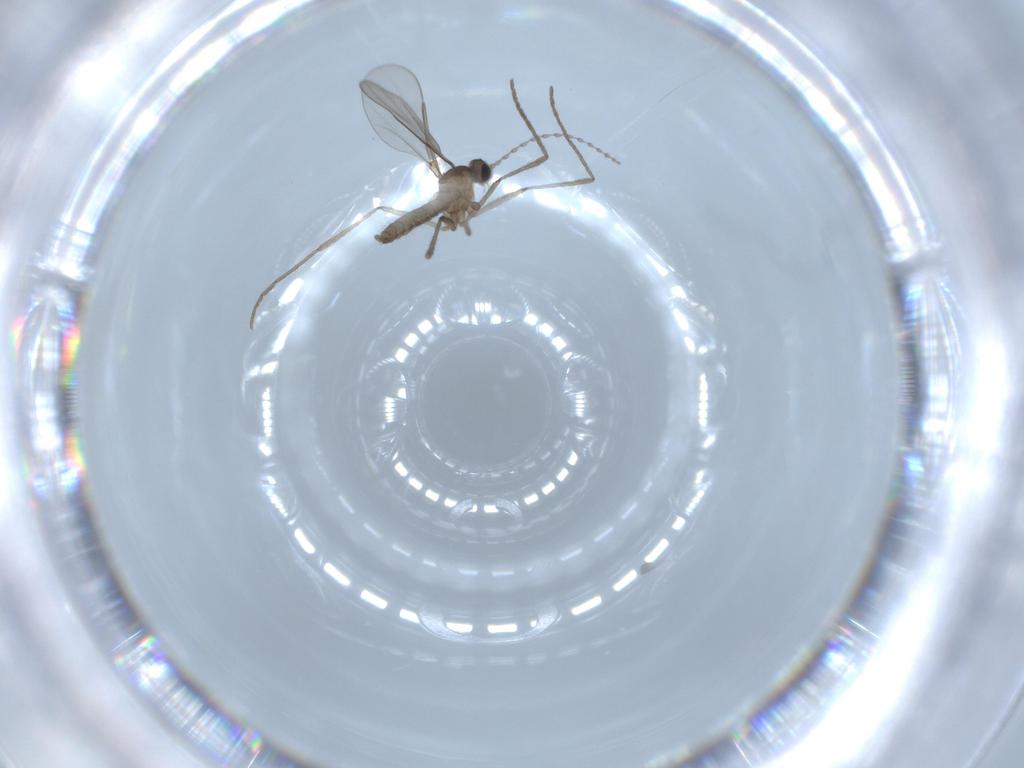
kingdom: Animalia
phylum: Arthropoda
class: Insecta
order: Diptera
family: Cecidomyiidae
